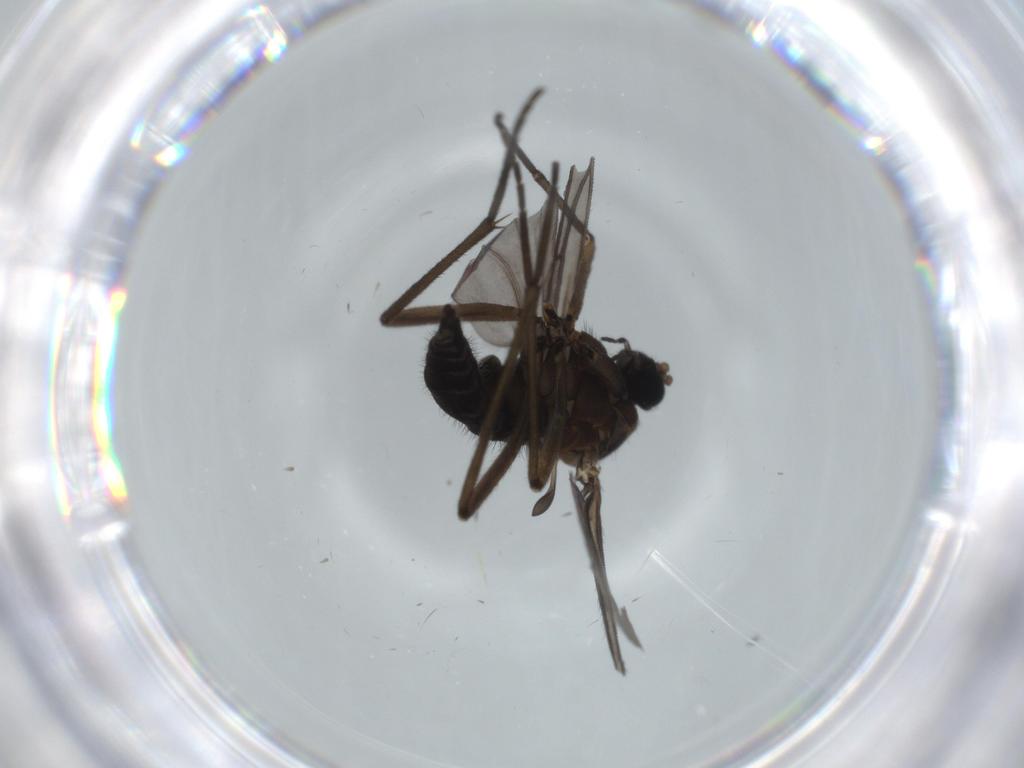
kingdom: Animalia
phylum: Arthropoda
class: Insecta
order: Diptera
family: Sciaridae
